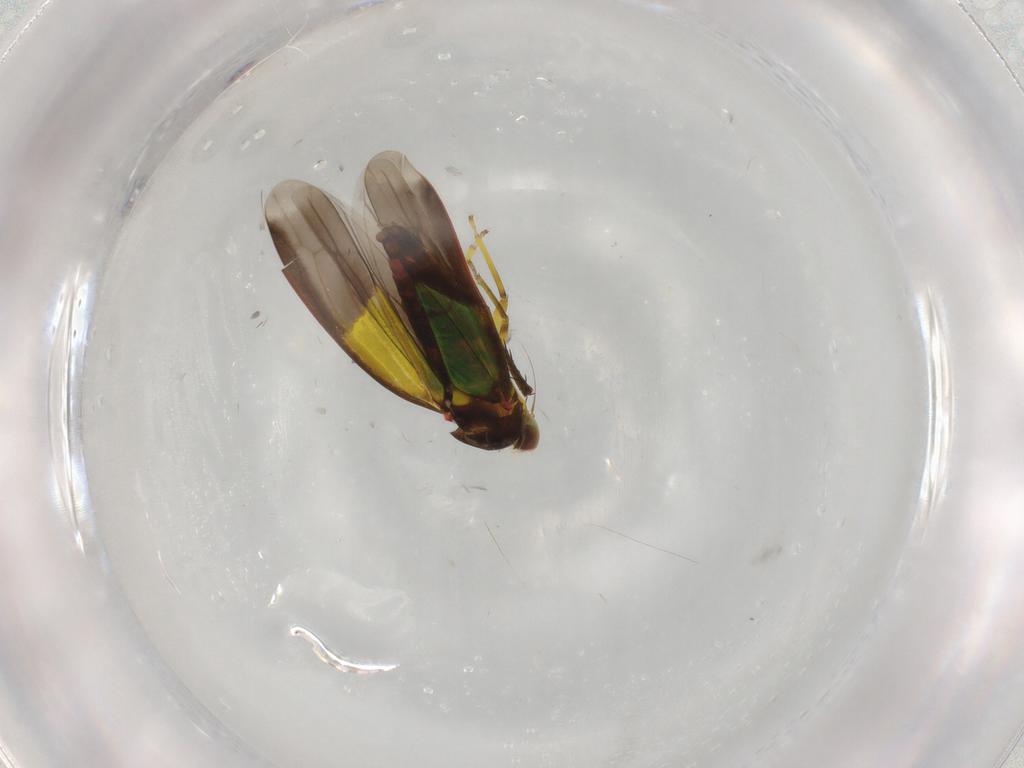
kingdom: Animalia
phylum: Arthropoda
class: Insecta
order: Hemiptera
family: Cicadellidae
